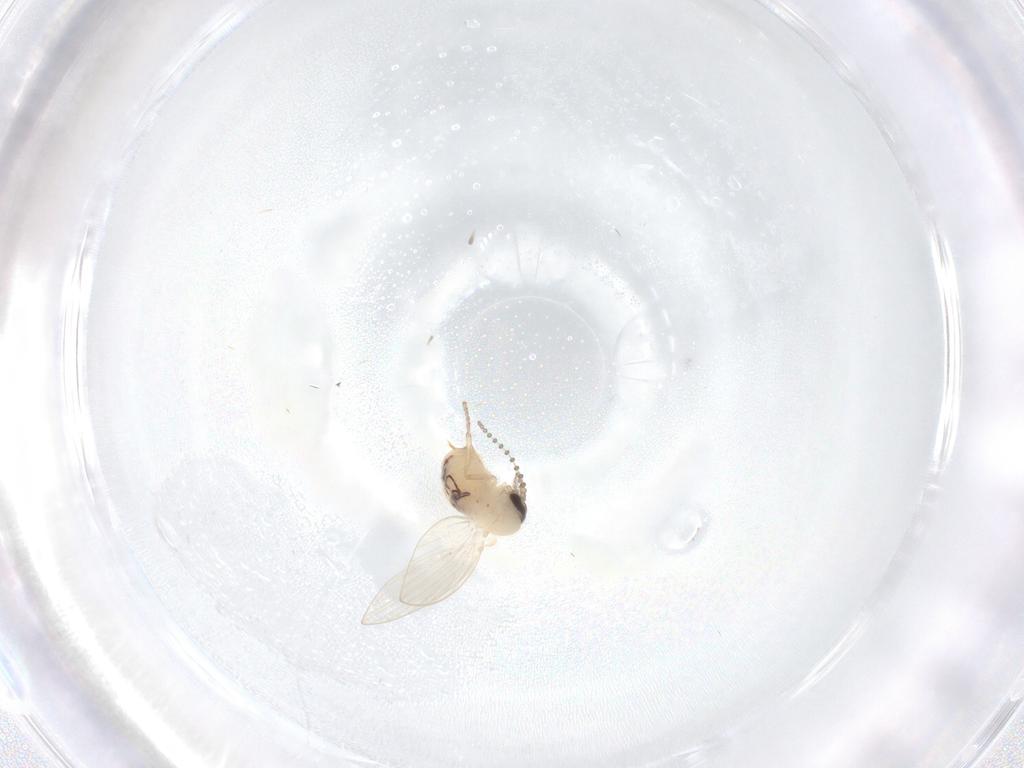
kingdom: Animalia
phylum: Arthropoda
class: Insecta
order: Diptera
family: Psychodidae
